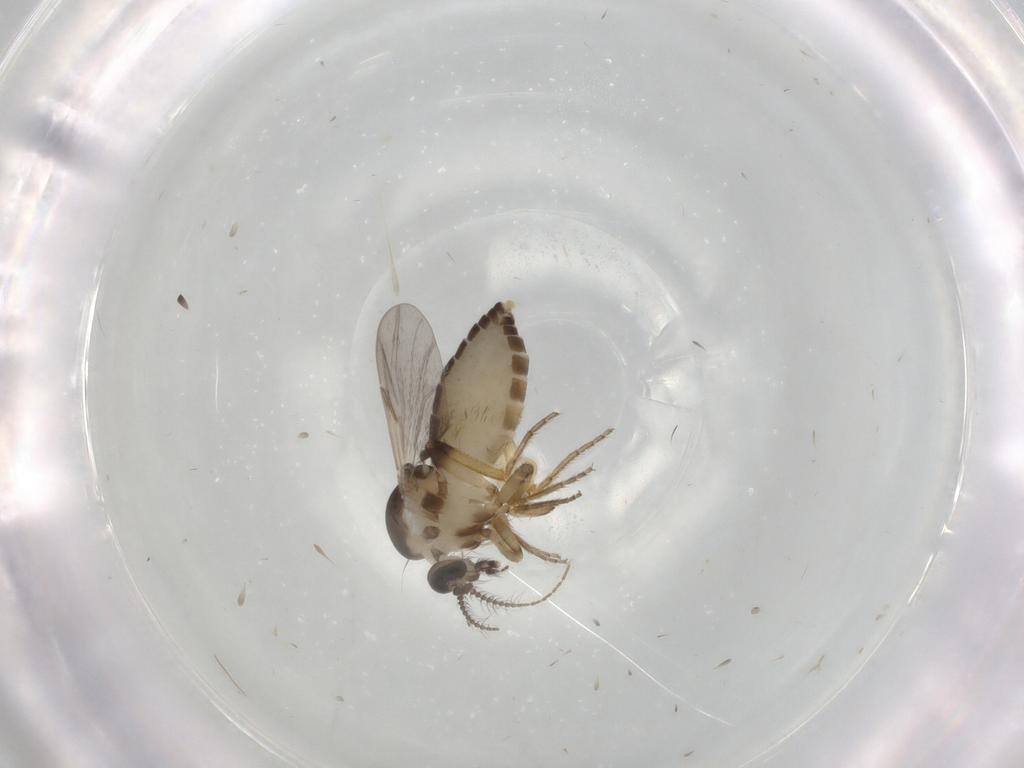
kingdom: Animalia
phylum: Arthropoda
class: Insecta
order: Diptera
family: Ceratopogonidae
